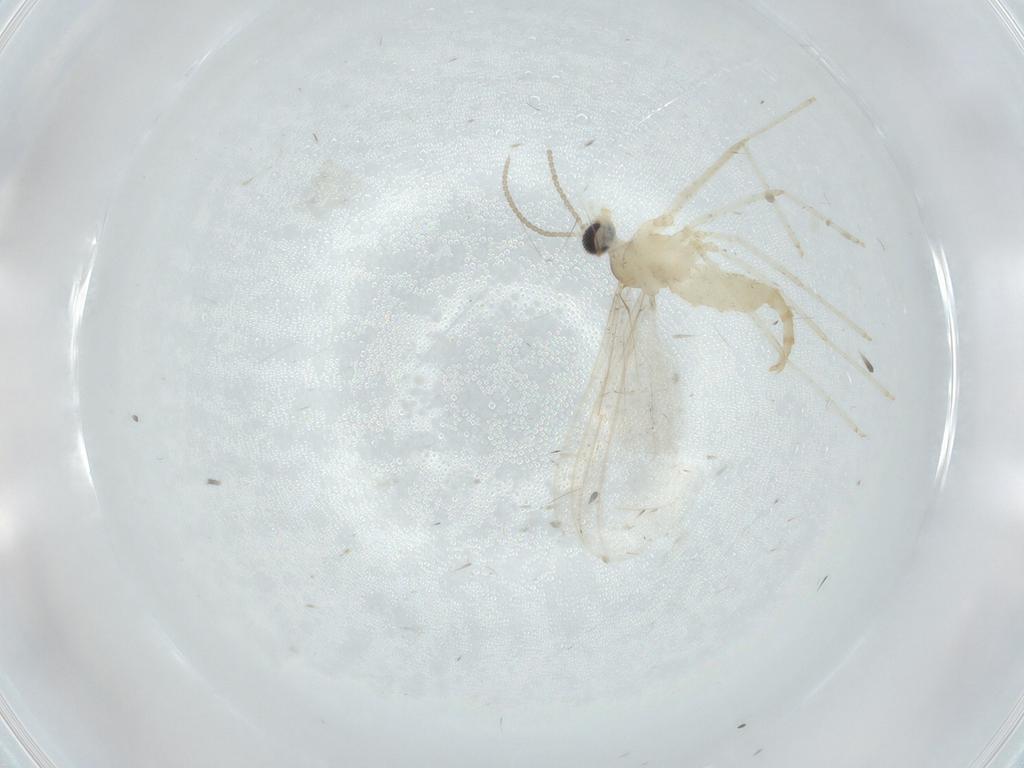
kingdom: Animalia
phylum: Arthropoda
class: Insecta
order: Diptera
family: Cecidomyiidae
